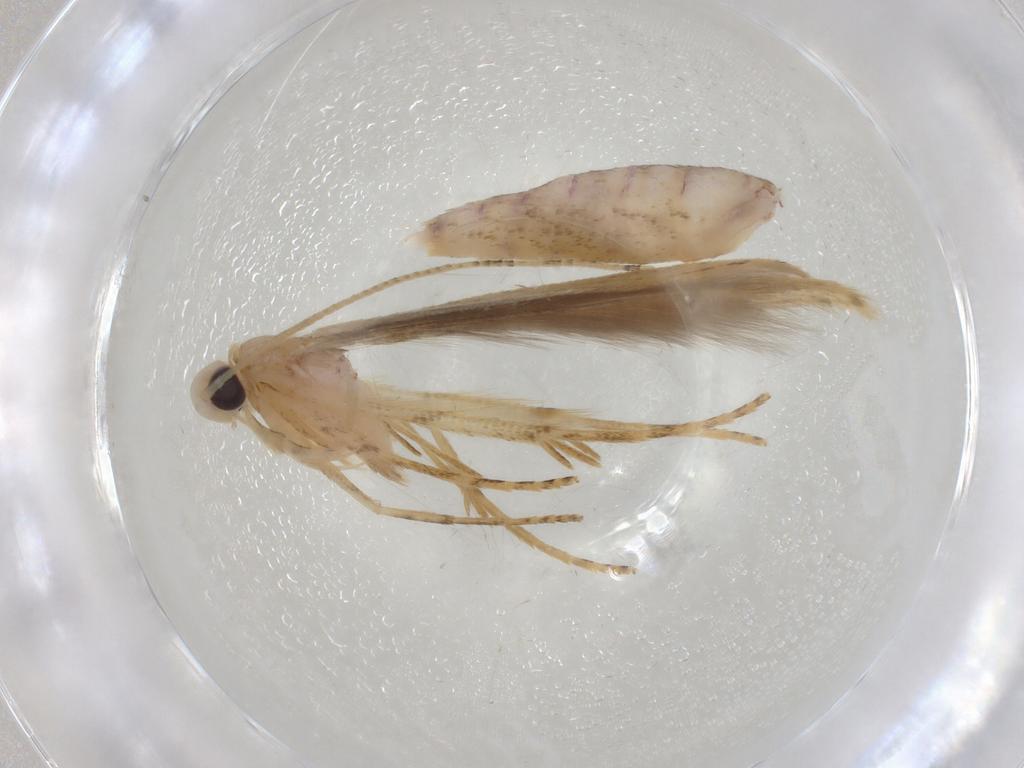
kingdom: Animalia
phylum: Arthropoda
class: Insecta
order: Lepidoptera
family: Batrachedridae
